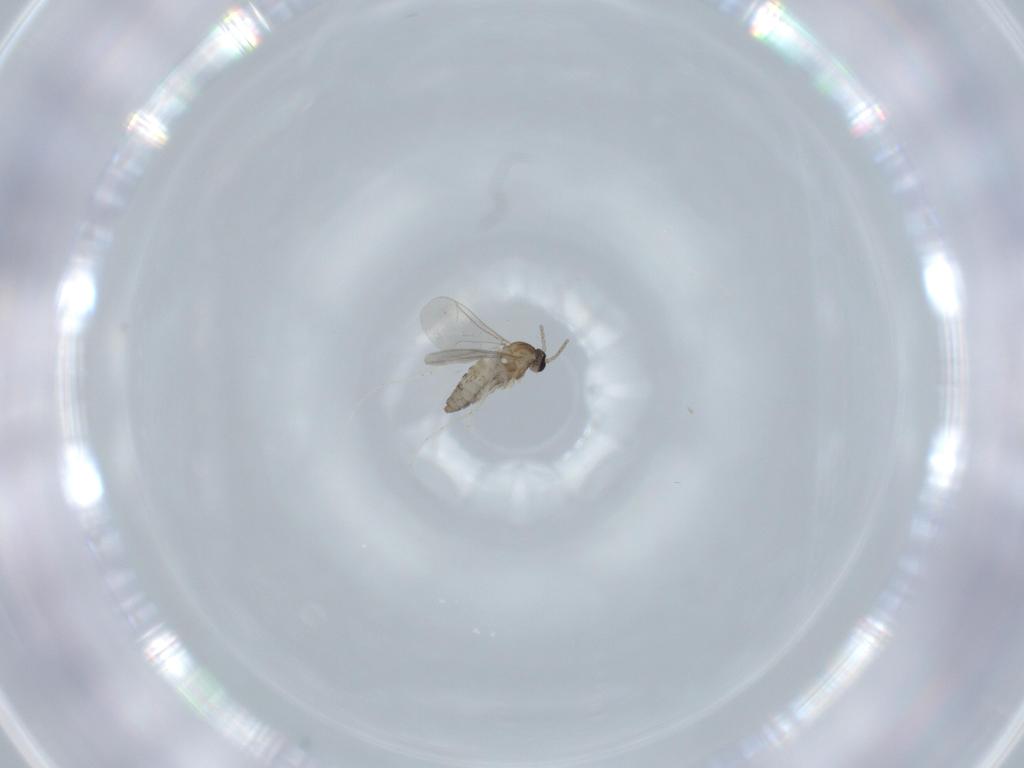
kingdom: Animalia
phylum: Arthropoda
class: Insecta
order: Diptera
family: Cecidomyiidae
